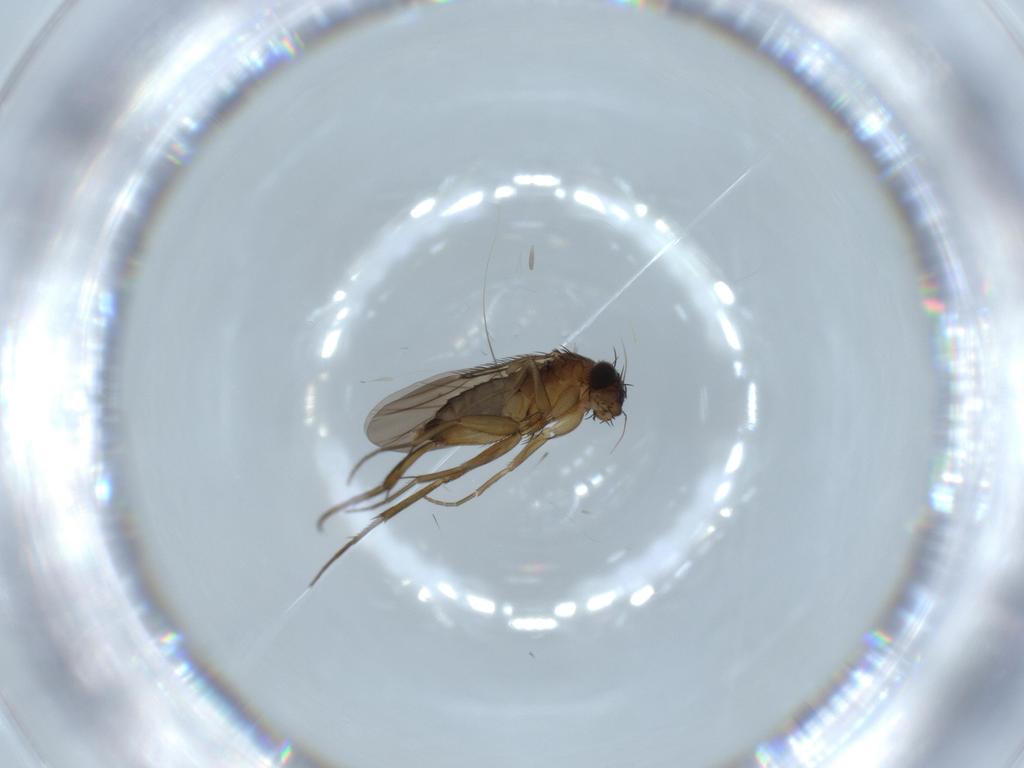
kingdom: Animalia
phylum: Arthropoda
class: Insecta
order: Diptera
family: Phoridae
